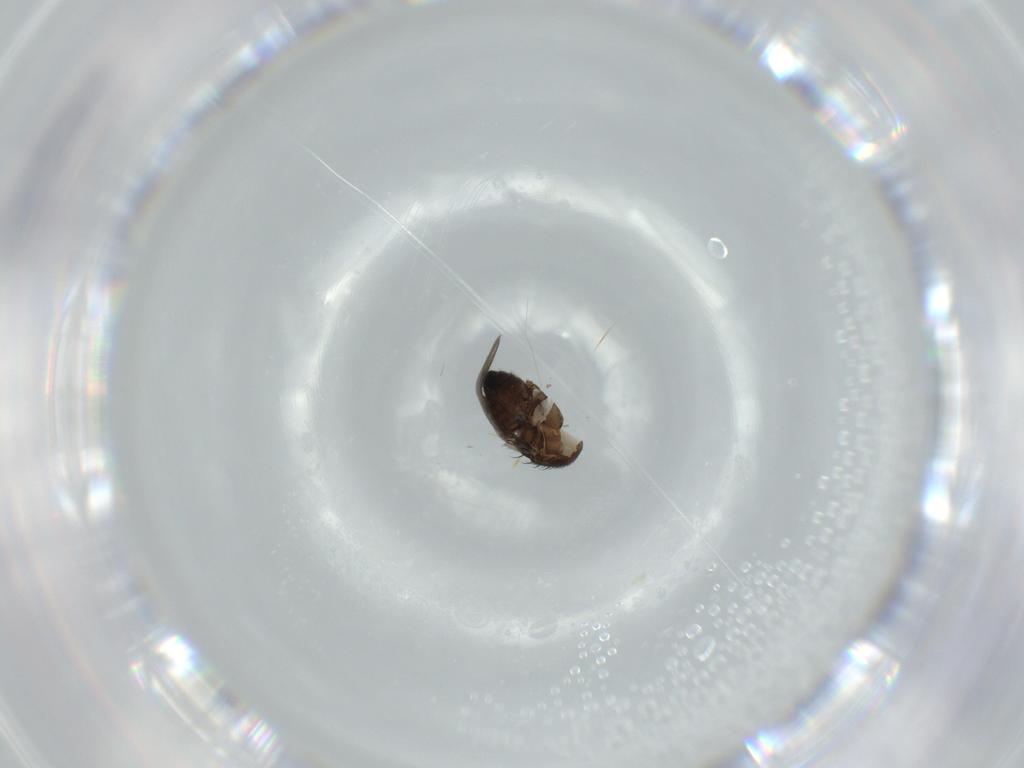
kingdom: Animalia
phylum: Arthropoda
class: Insecta
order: Diptera
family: Sphaeroceridae
